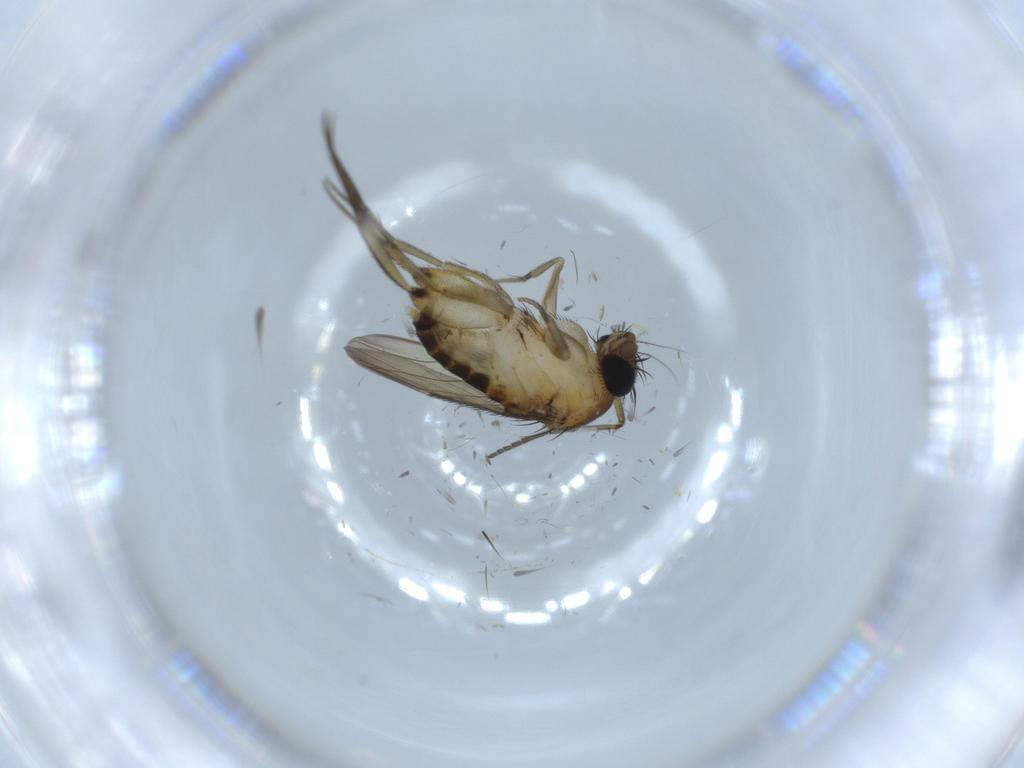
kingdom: Animalia
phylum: Arthropoda
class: Insecta
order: Diptera
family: Phoridae
